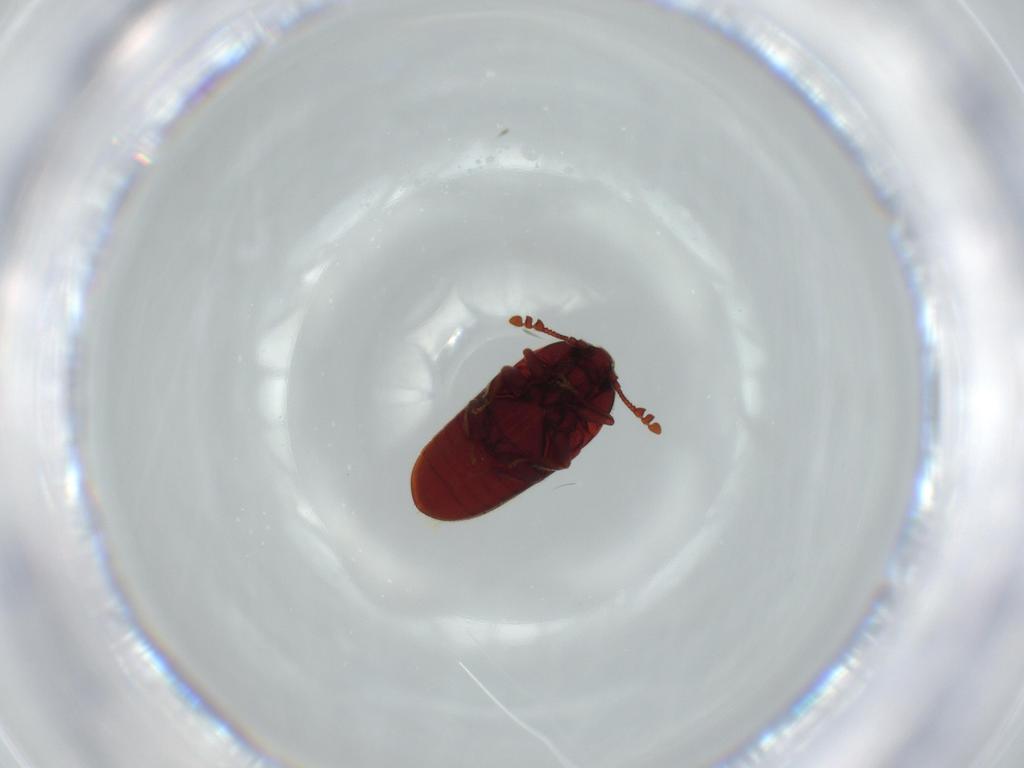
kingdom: Animalia
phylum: Arthropoda
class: Insecta
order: Coleoptera
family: Throscidae
